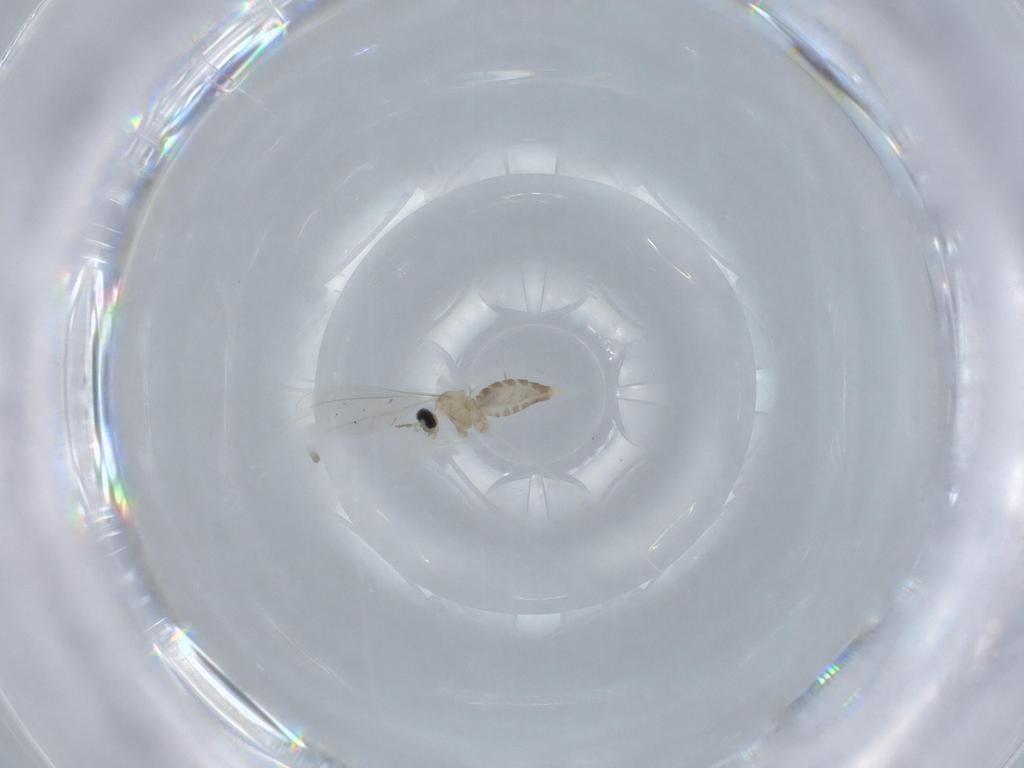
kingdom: Animalia
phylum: Arthropoda
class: Insecta
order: Diptera
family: Cecidomyiidae
